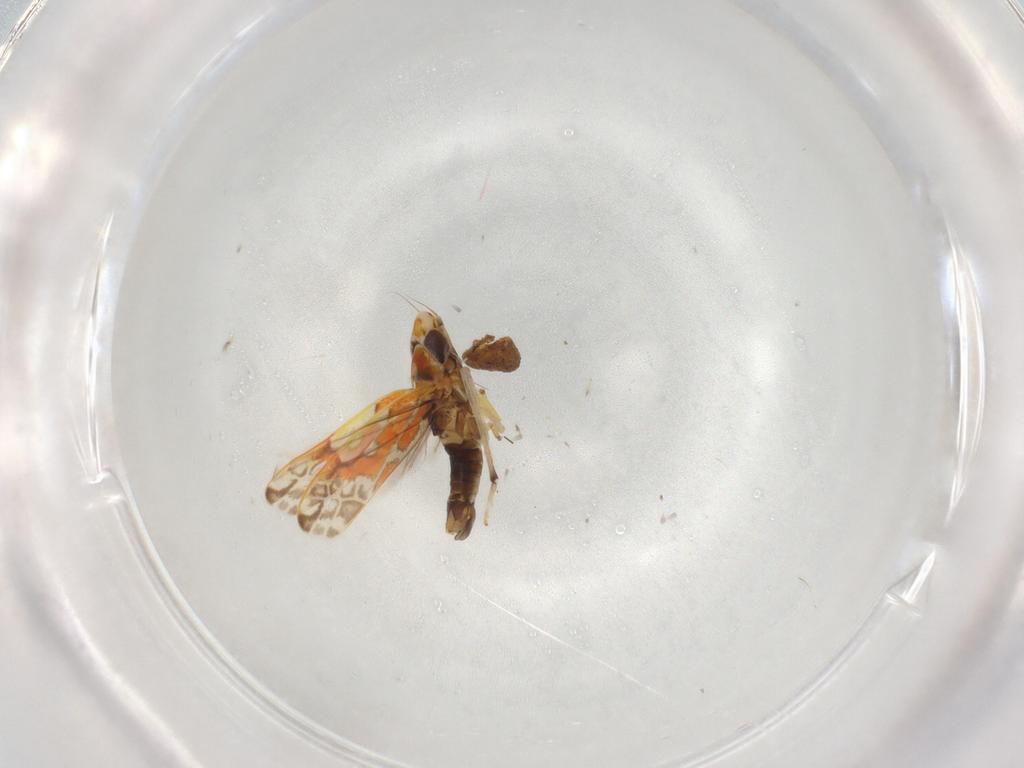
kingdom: Animalia
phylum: Arthropoda
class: Insecta
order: Hemiptera
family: Cicadellidae
